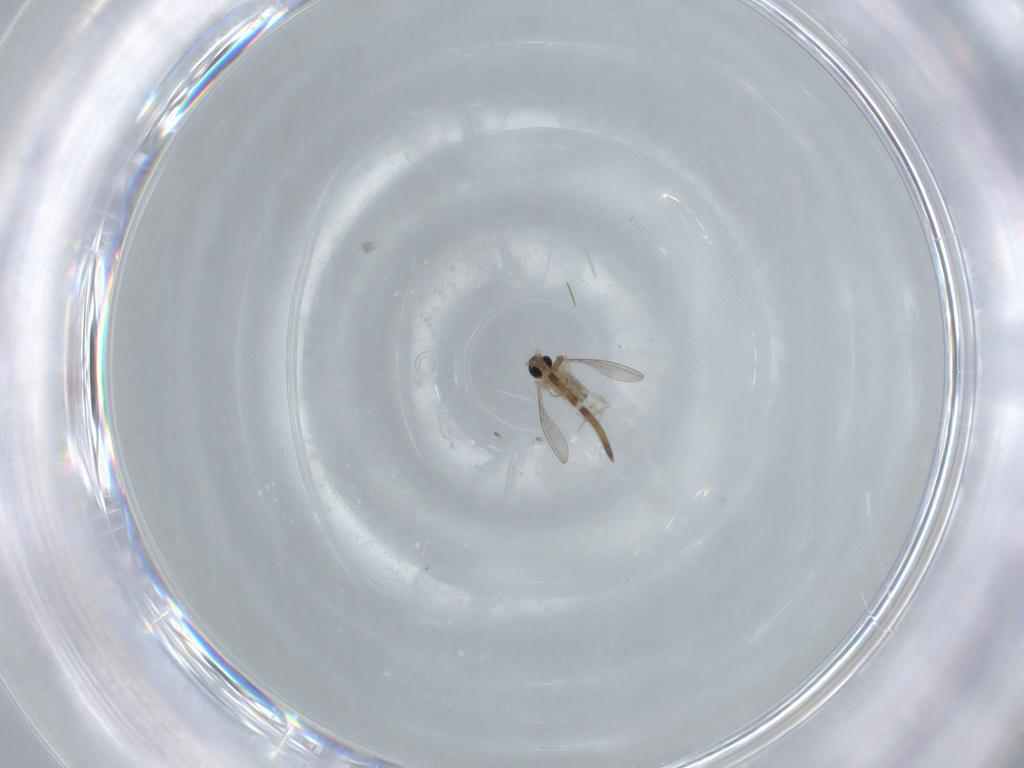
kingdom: Animalia
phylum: Arthropoda
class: Insecta
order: Diptera
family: Cecidomyiidae
